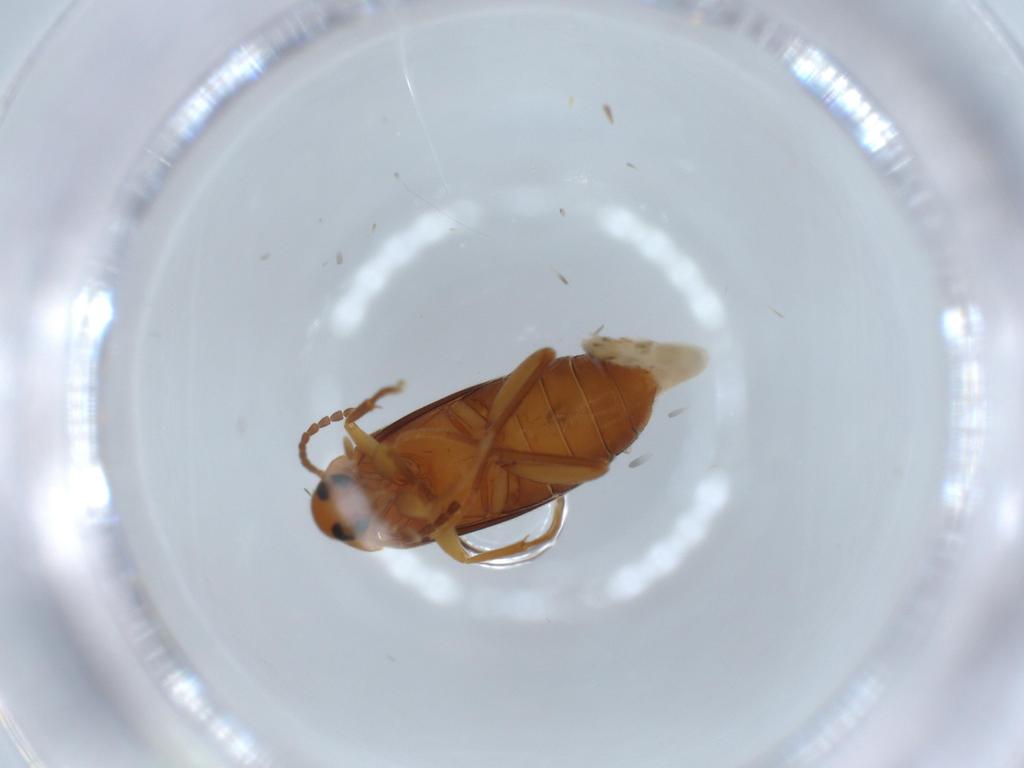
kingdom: Animalia
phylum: Arthropoda
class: Insecta
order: Coleoptera
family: Scraptiidae
